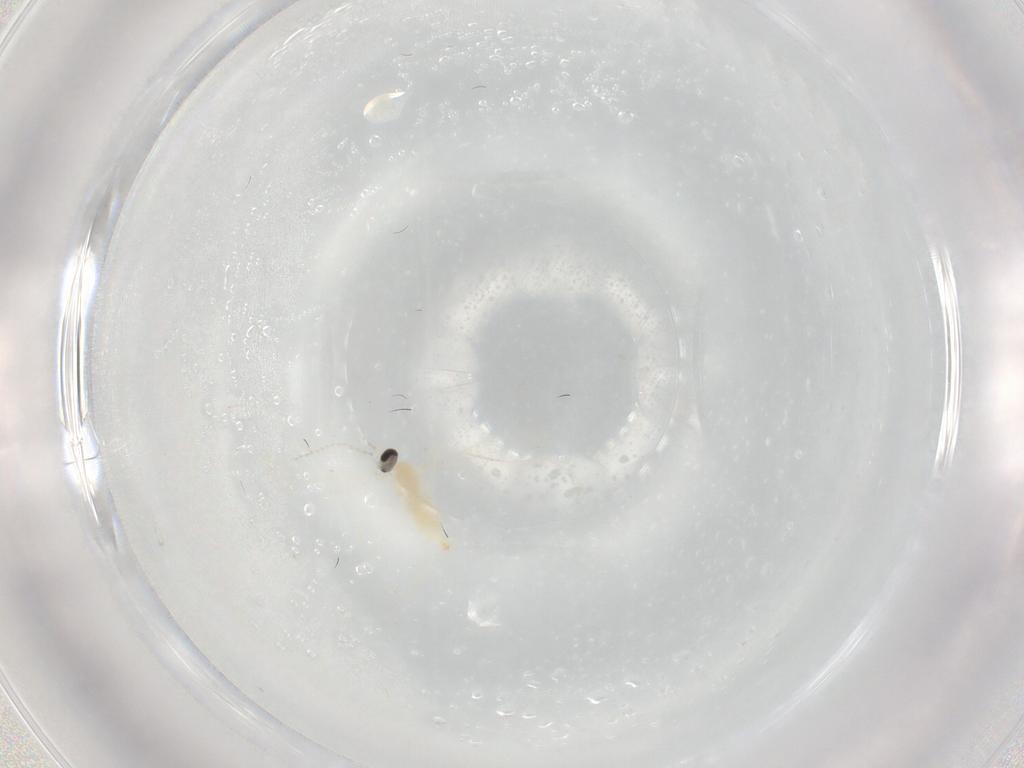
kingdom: Animalia
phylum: Arthropoda
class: Insecta
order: Diptera
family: Cecidomyiidae
